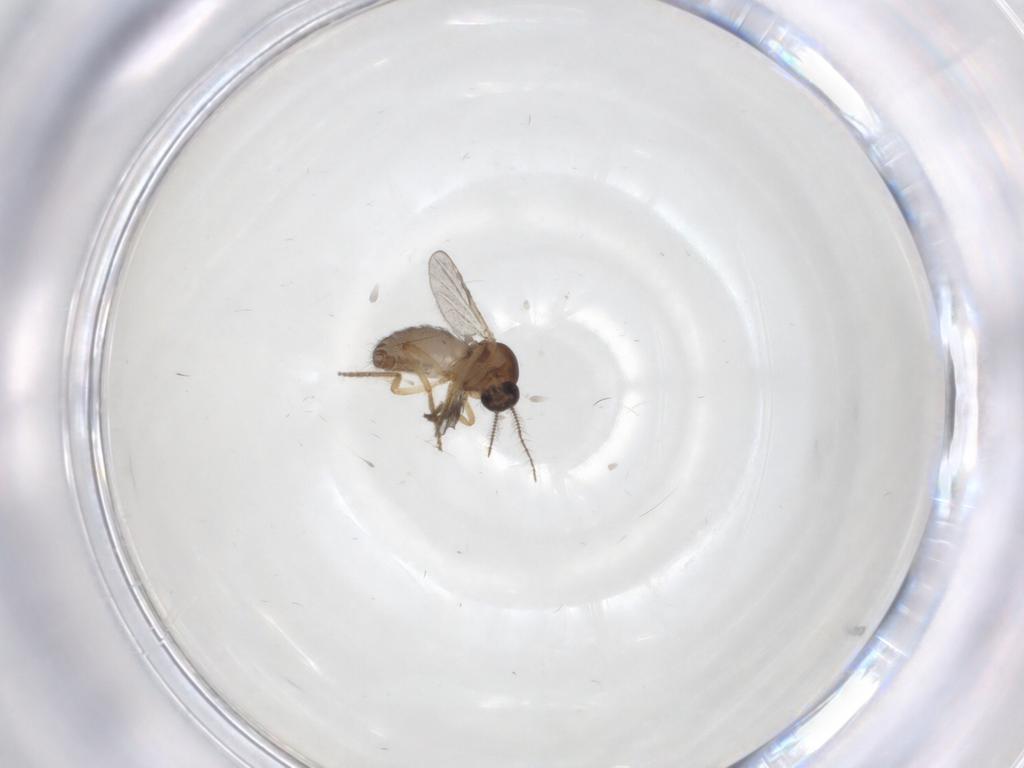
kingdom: Animalia
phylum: Arthropoda
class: Insecta
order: Diptera
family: Ceratopogonidae
